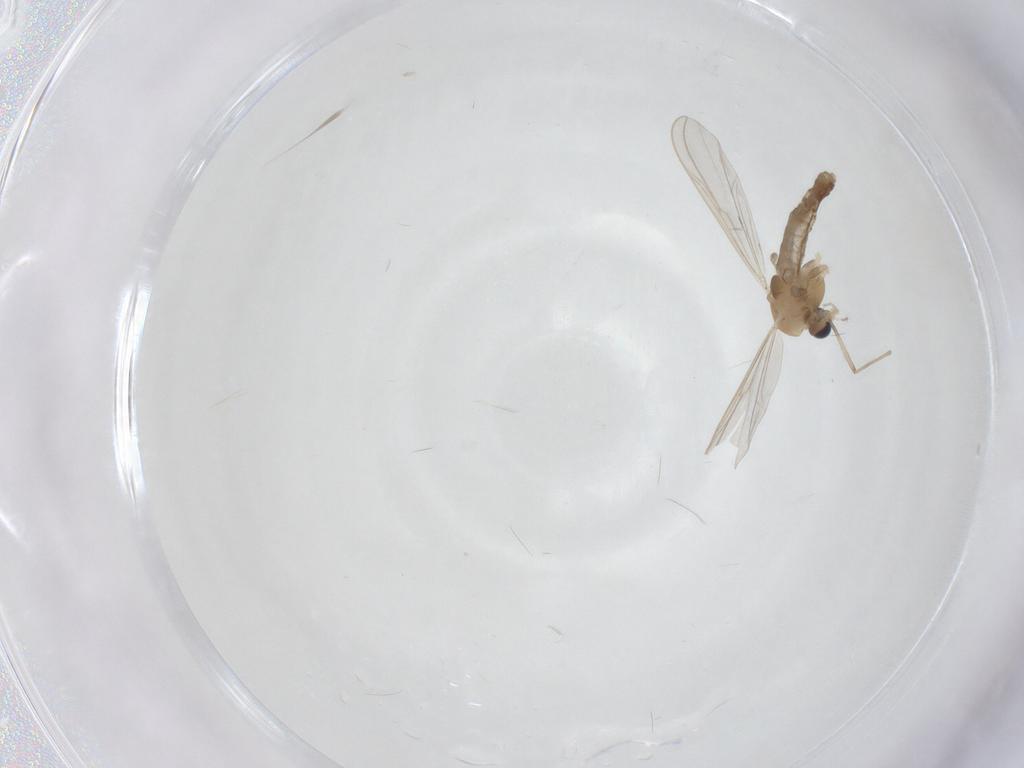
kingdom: Animalia
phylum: Arthropoda
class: Insecta
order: Diptera
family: Chironomidae
